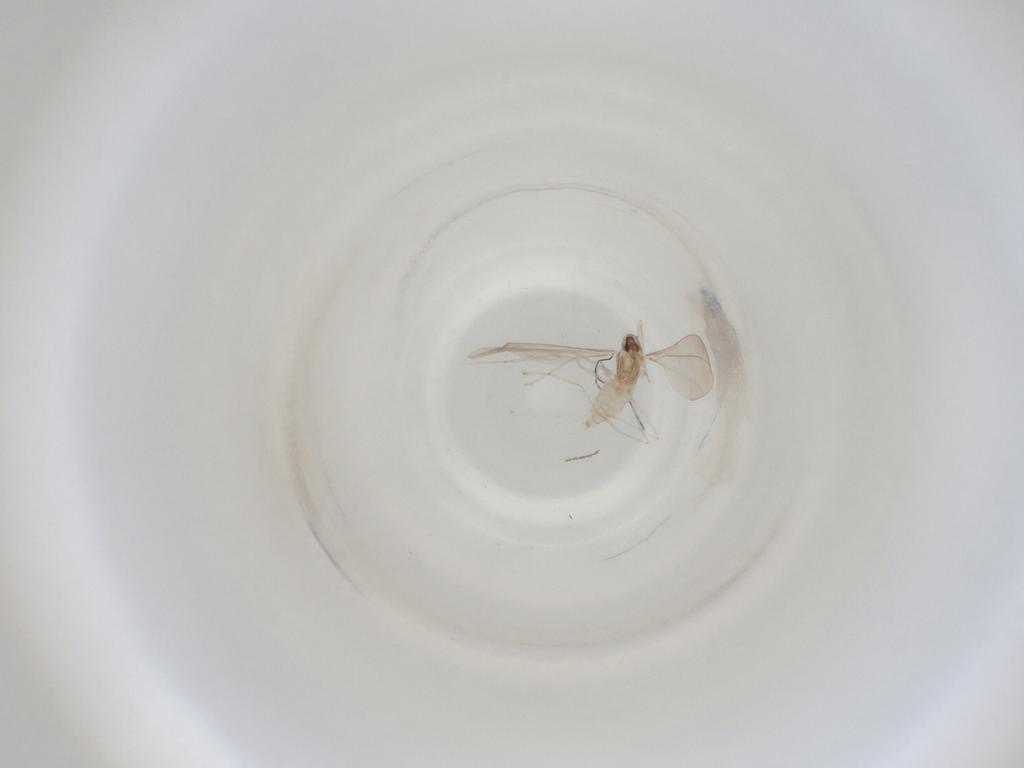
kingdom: Animalia
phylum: Arthropoda
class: Insecta
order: Diptera
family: Cecidomyiidae
